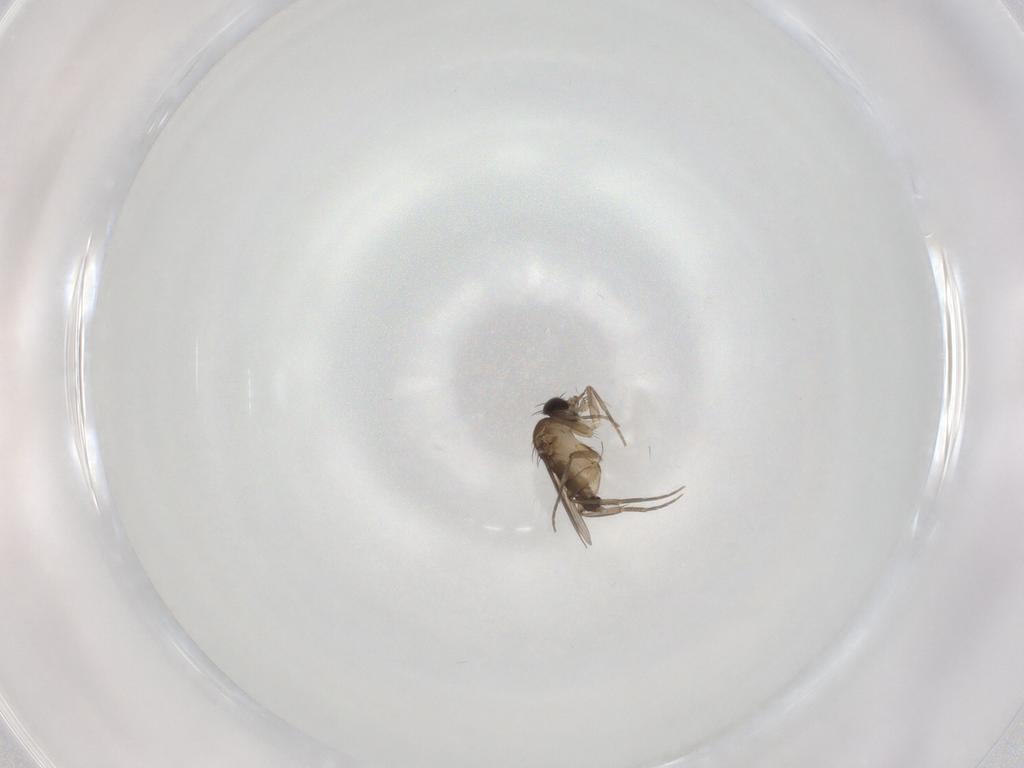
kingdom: Animalia
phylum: Arthropoda
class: Insecta
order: Diptera
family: Phoridae
